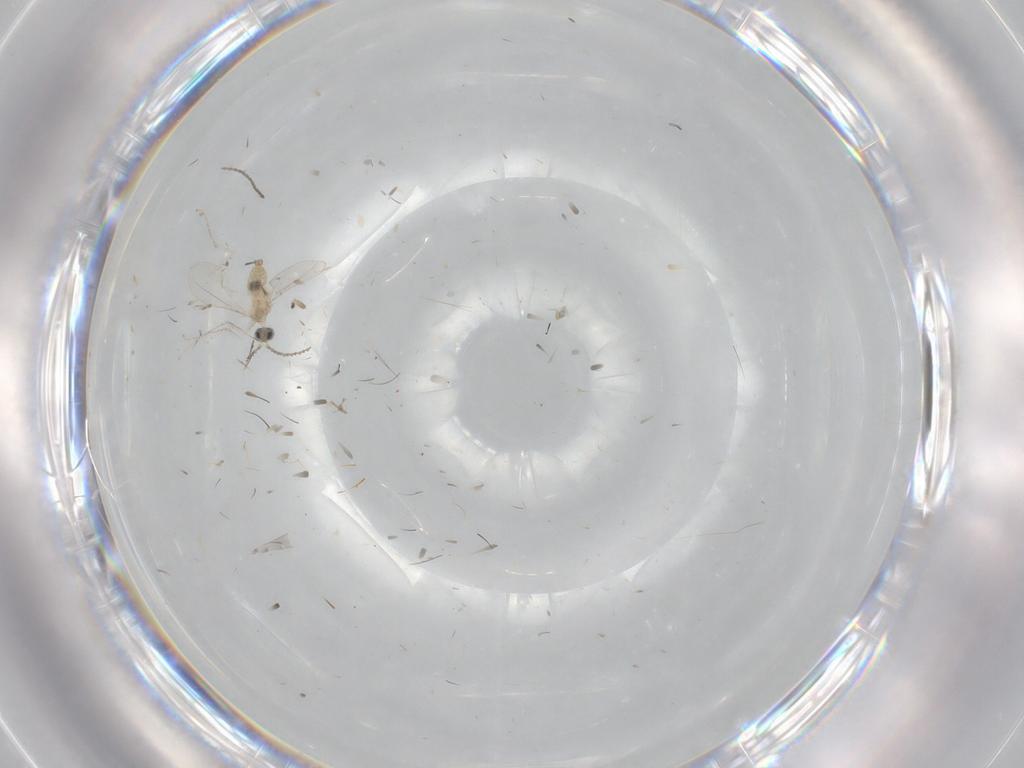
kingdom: Animalia
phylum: Arthropoda
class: Insecta
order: Diptera
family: Cecidomyiidae
